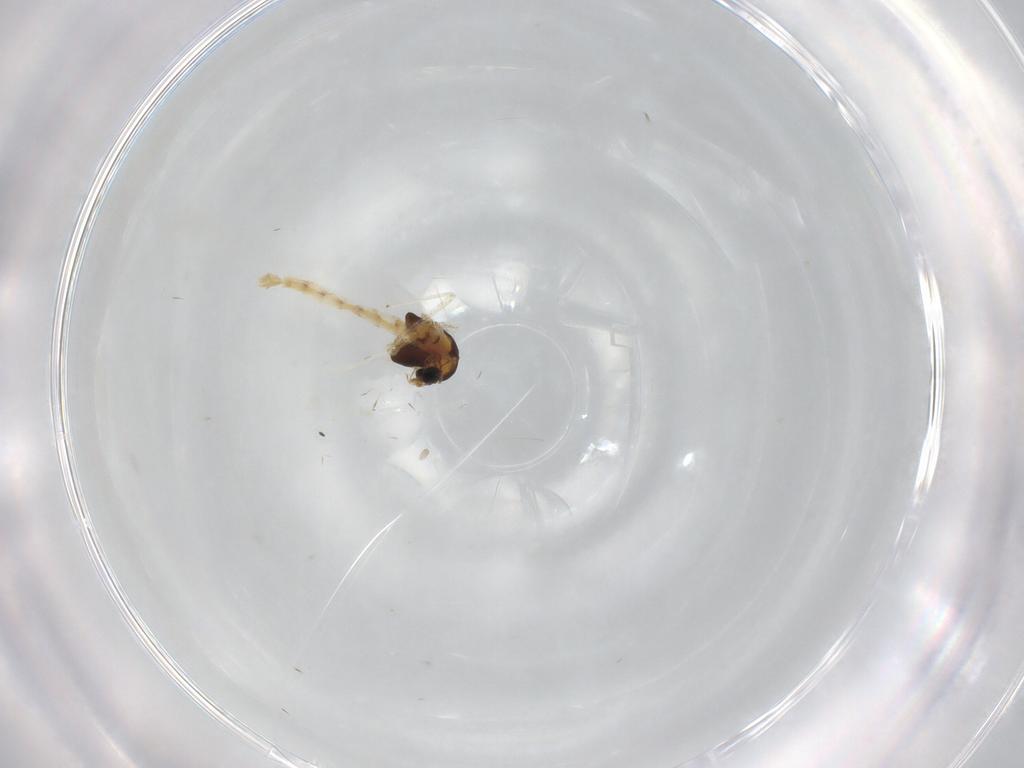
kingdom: Animalia
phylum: Arthropoda
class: Insecta
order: Diptera
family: Chironomidae
